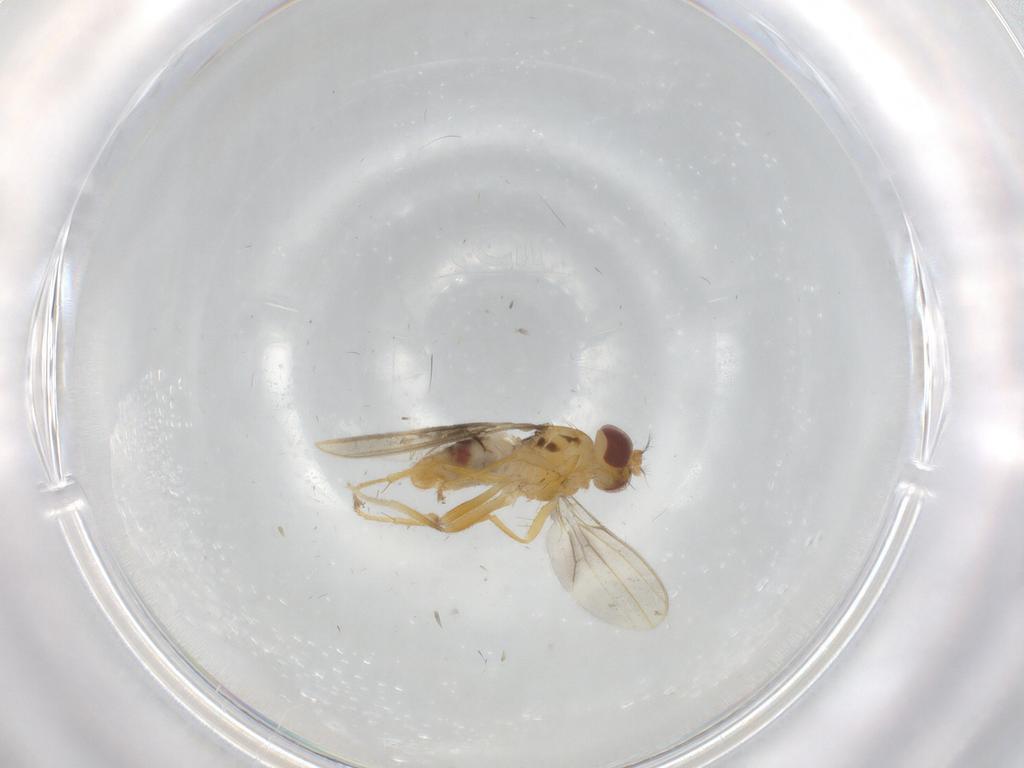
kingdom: Animalia
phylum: Arthropoda
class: Insecta
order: Diptera
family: Periscelididae
